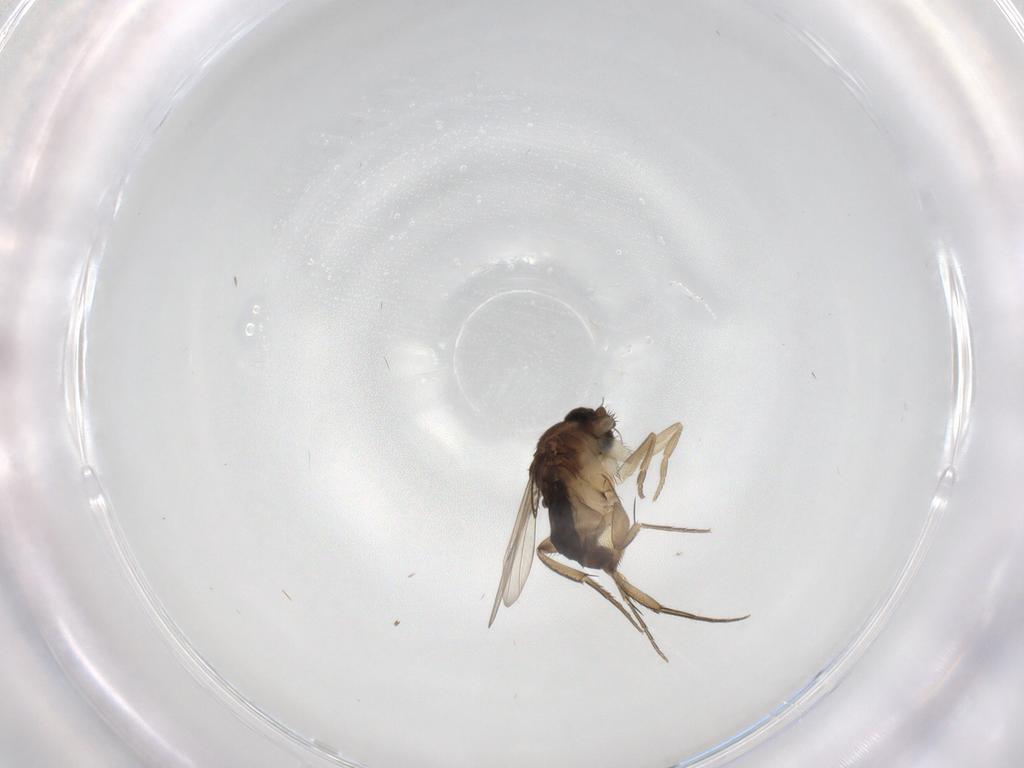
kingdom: Animalia
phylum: Arthropoda
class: Insecta
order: Diptera
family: Phoridae
